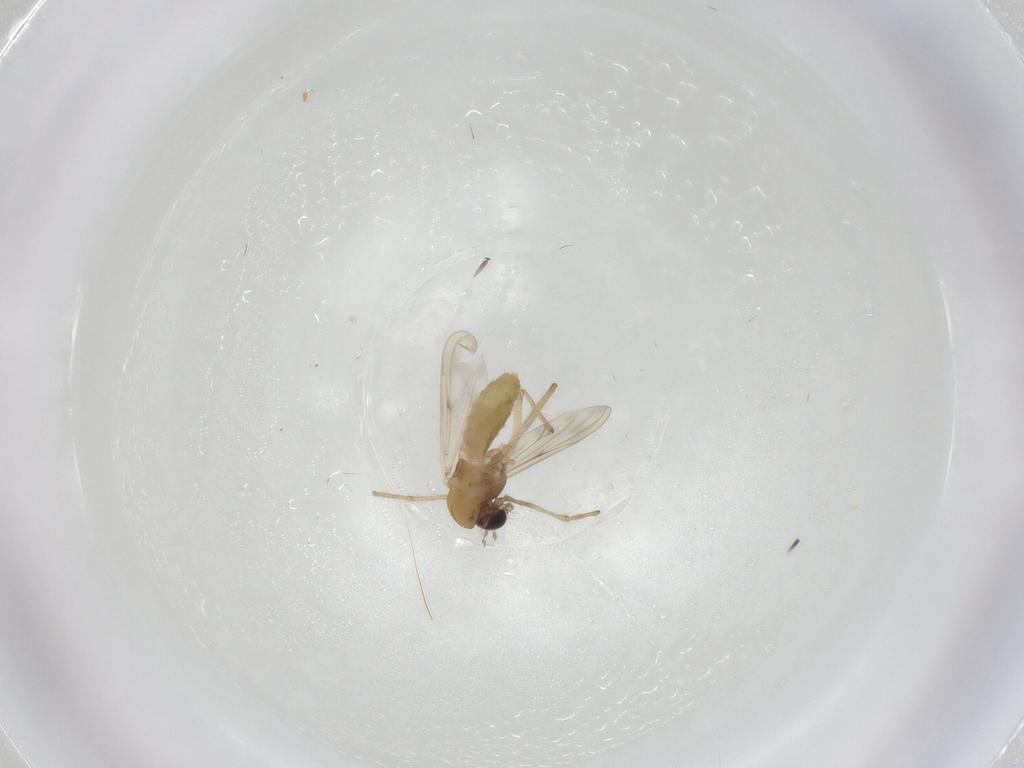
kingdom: Animalia
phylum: Arthropoda
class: Insecta
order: Diptera
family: Chironomidae
